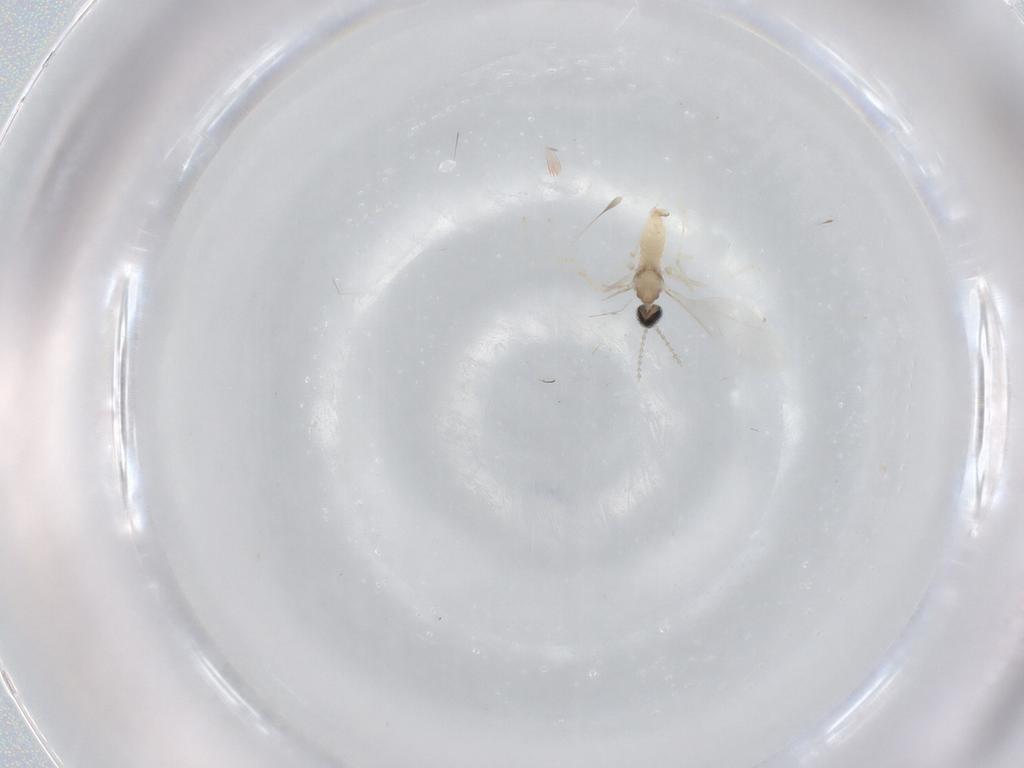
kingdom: Animalia
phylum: Arthropoda
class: Insecta
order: Diptera
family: Cecidomyiidae
